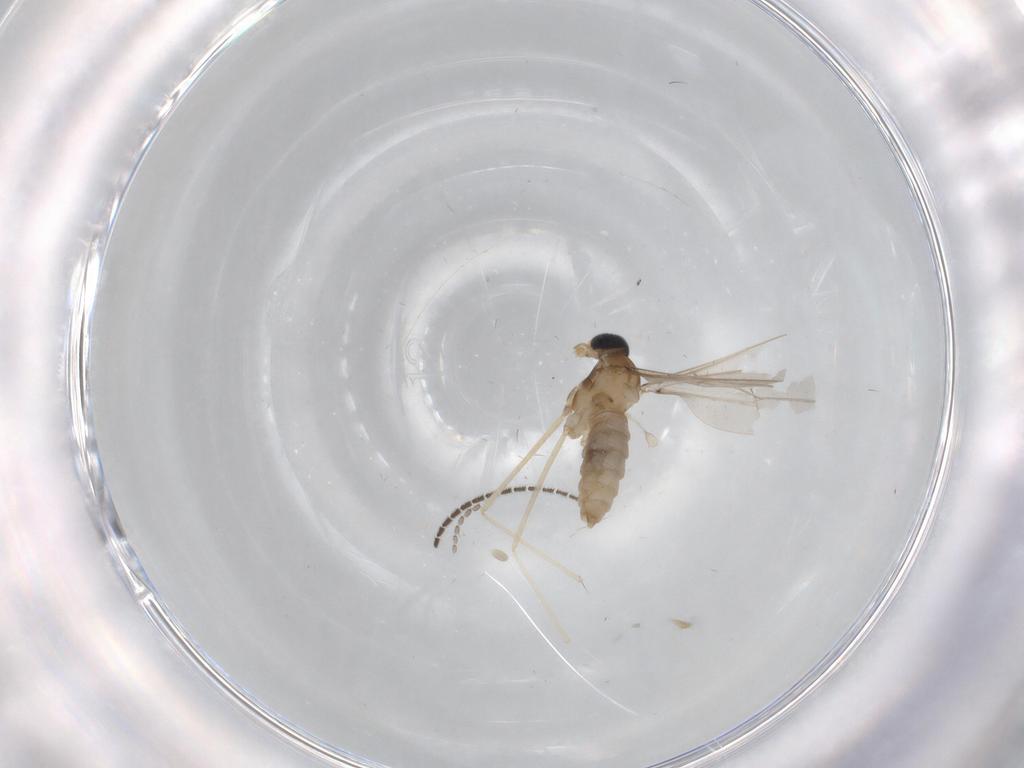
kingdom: Animalia
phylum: Arthropoda
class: Insecta
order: Diptera
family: Cecidomyiidae
